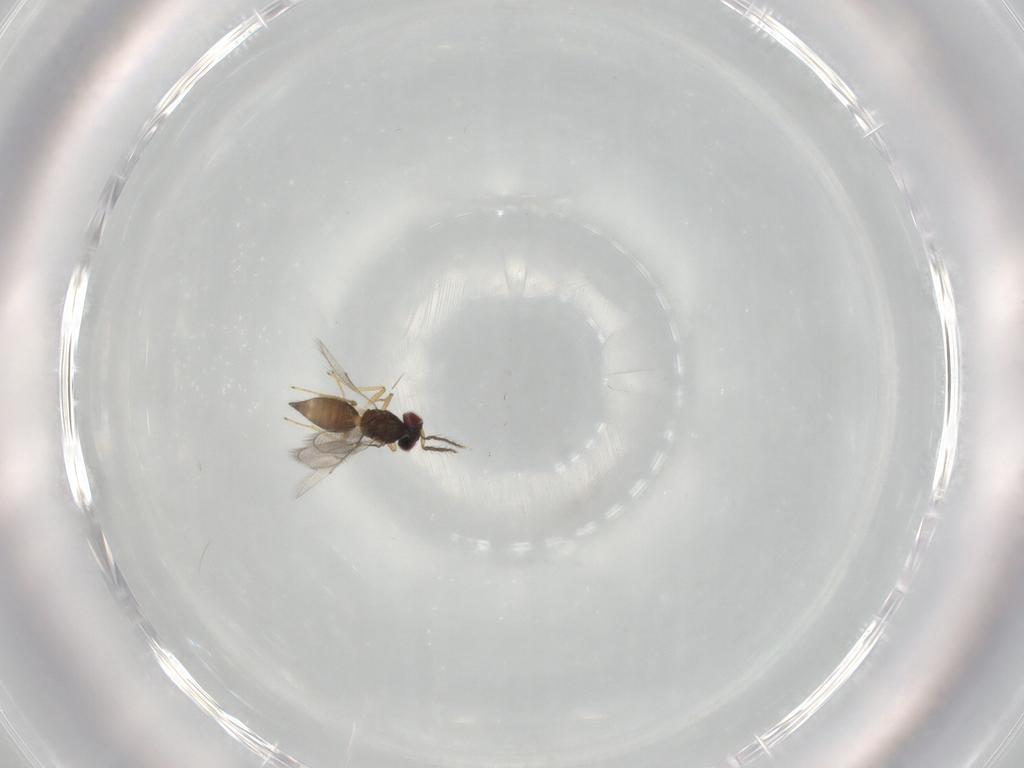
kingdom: Animalia
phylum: Arthropoda
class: Insecta
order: Hymenoptera
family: Eulophidae
